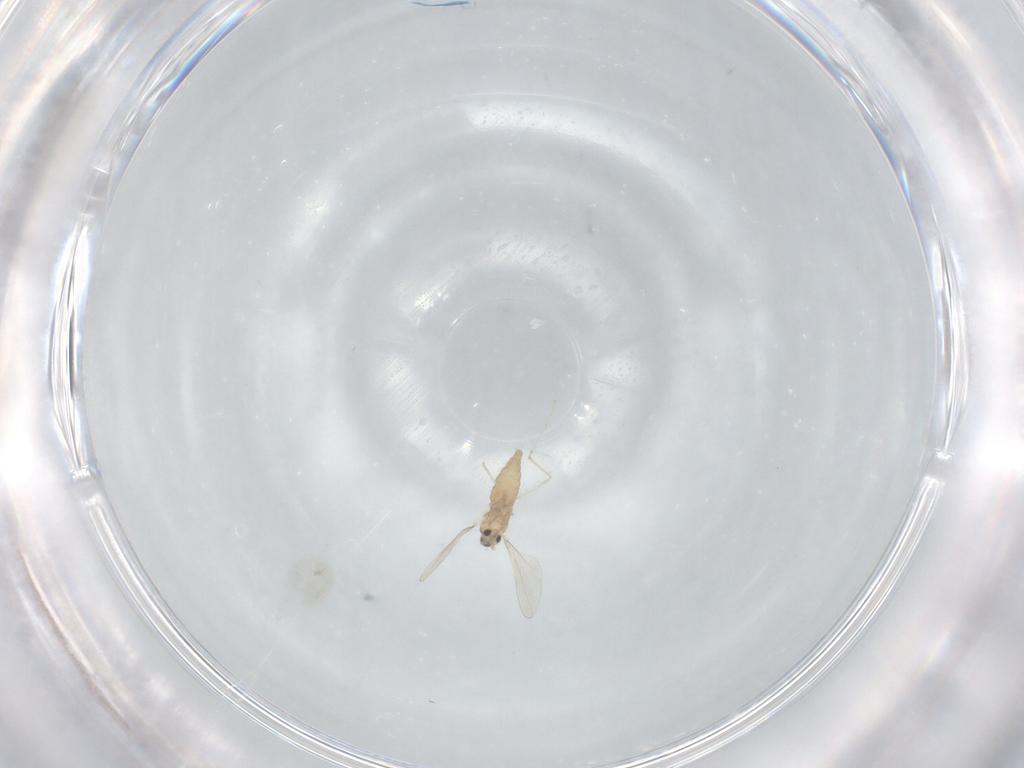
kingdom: Animalia
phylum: Arthropoda
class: Insecta
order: Diptera
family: Cecidomyiidae
